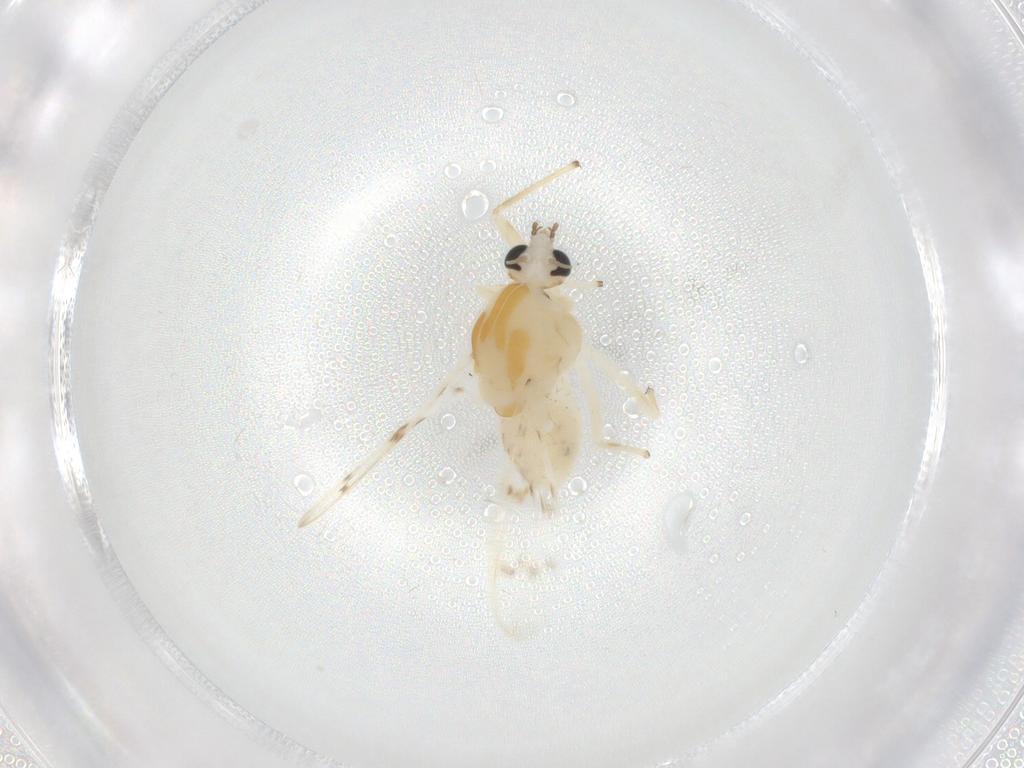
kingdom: Animalia
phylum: Arthropoda
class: Insecta
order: Diptera
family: Chironomidae
